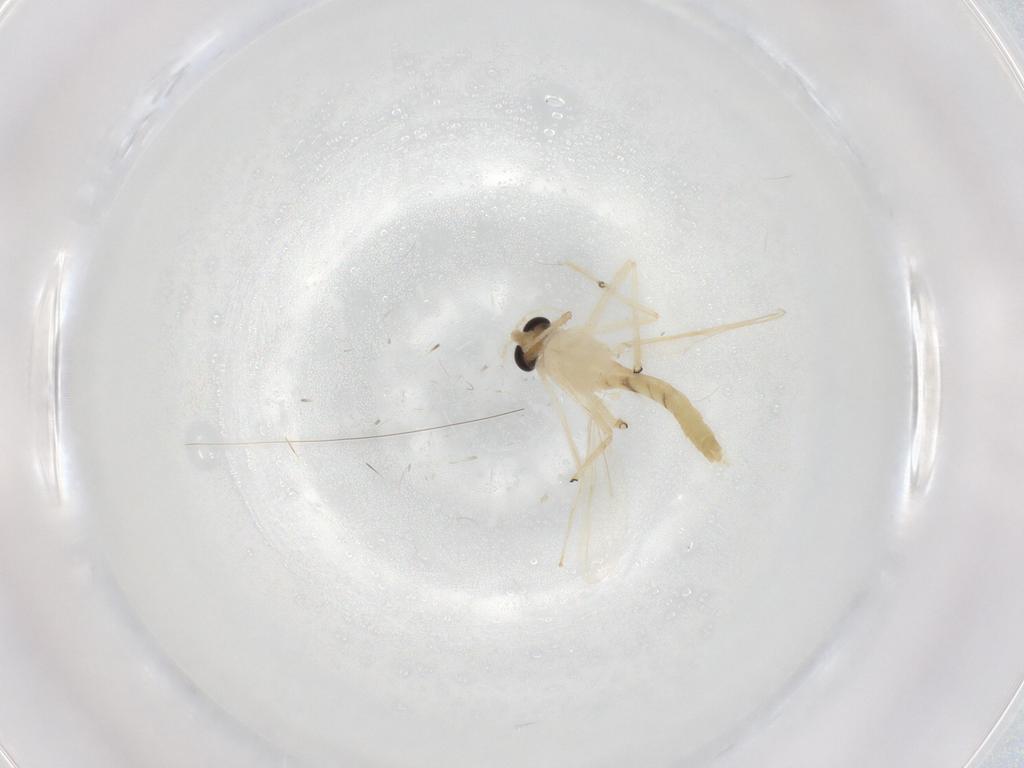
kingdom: Animalia
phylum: Arthropoda
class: Insecta
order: Diptera
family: Chironomidae
